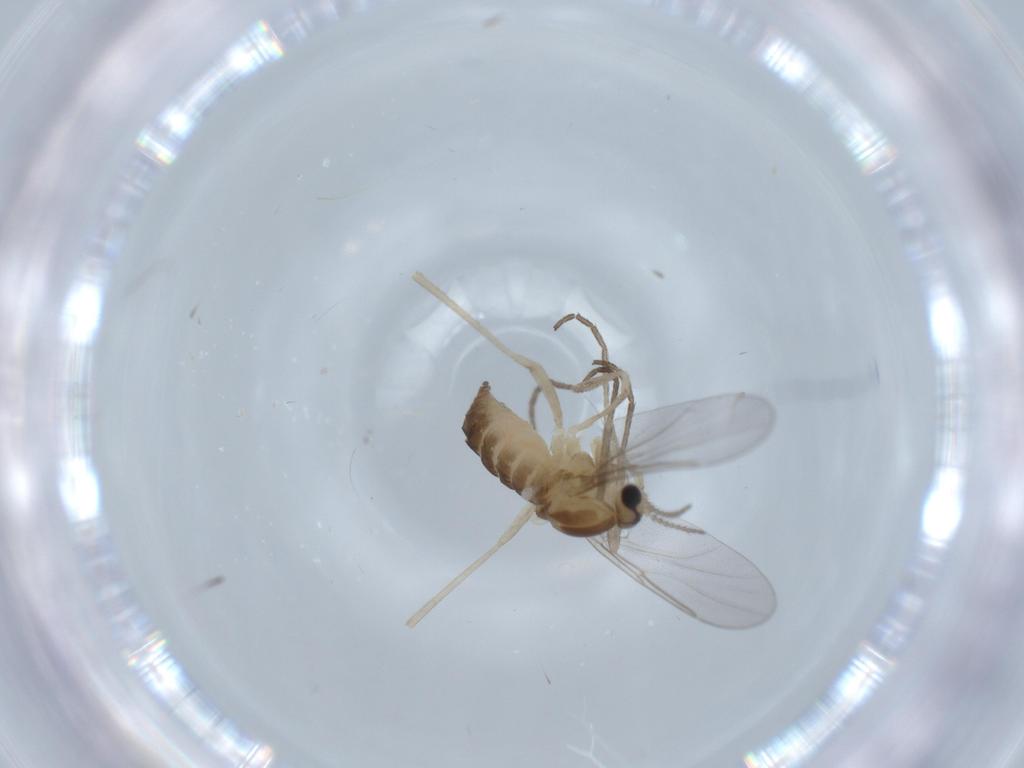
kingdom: Animalia
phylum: Arthropoda
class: Insecta
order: Diptera
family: Cecidomyiidae
